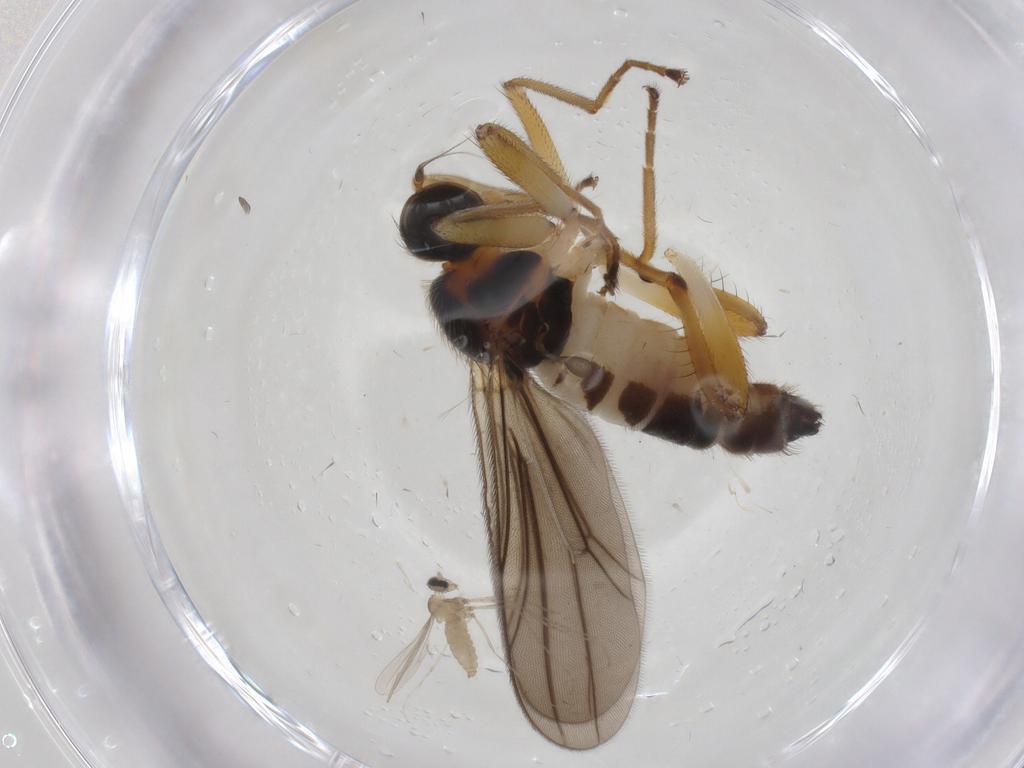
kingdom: Animalia
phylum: Arthropoda
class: Insecta
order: Diptera
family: Hybotidae
